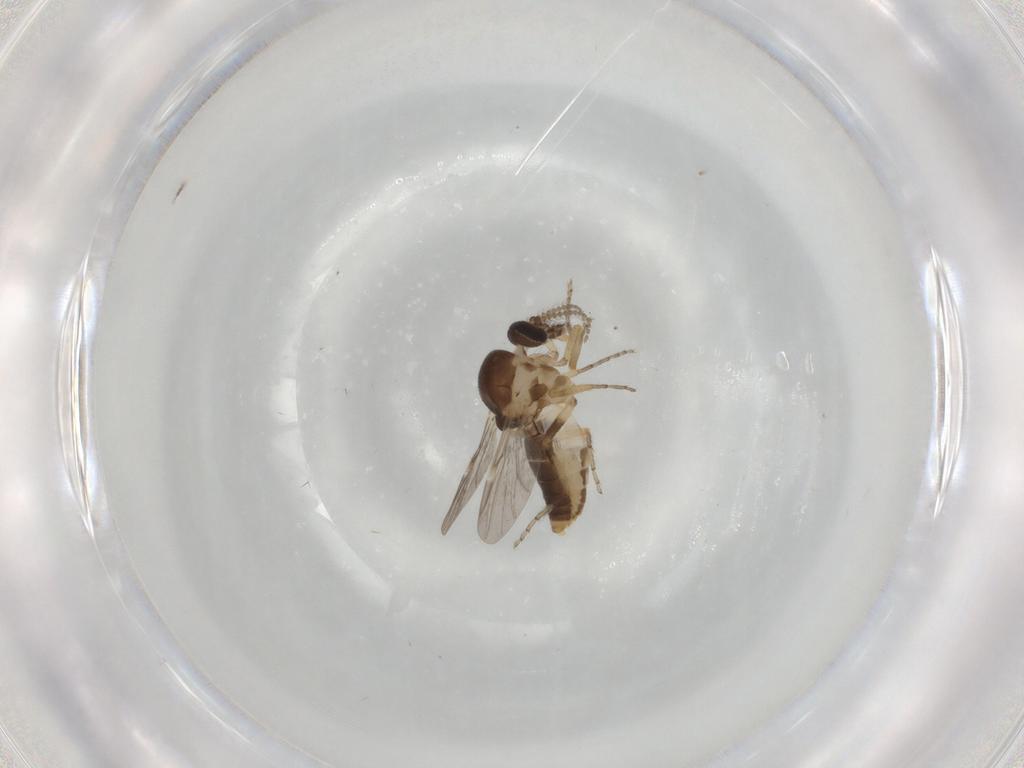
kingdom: Animalia
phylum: Arthropoda
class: Insecta
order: Diptera
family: Ceratopogonidae
